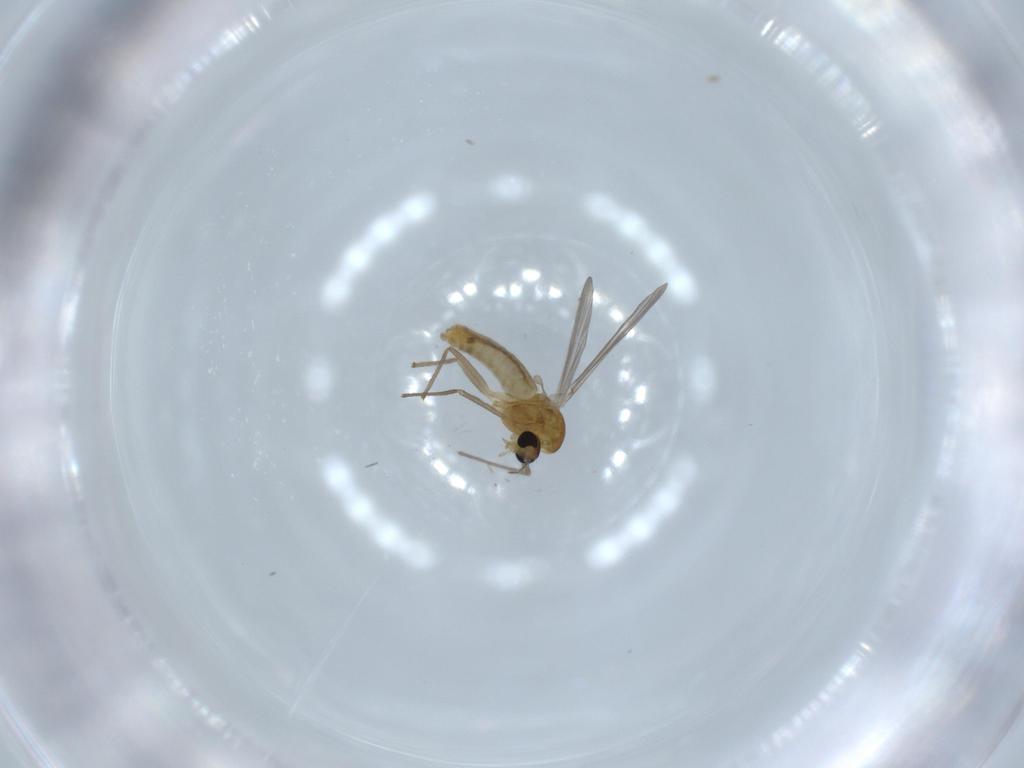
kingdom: Animalia
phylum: Arthropoda
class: Insecta
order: Diptera
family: Chironomidae
